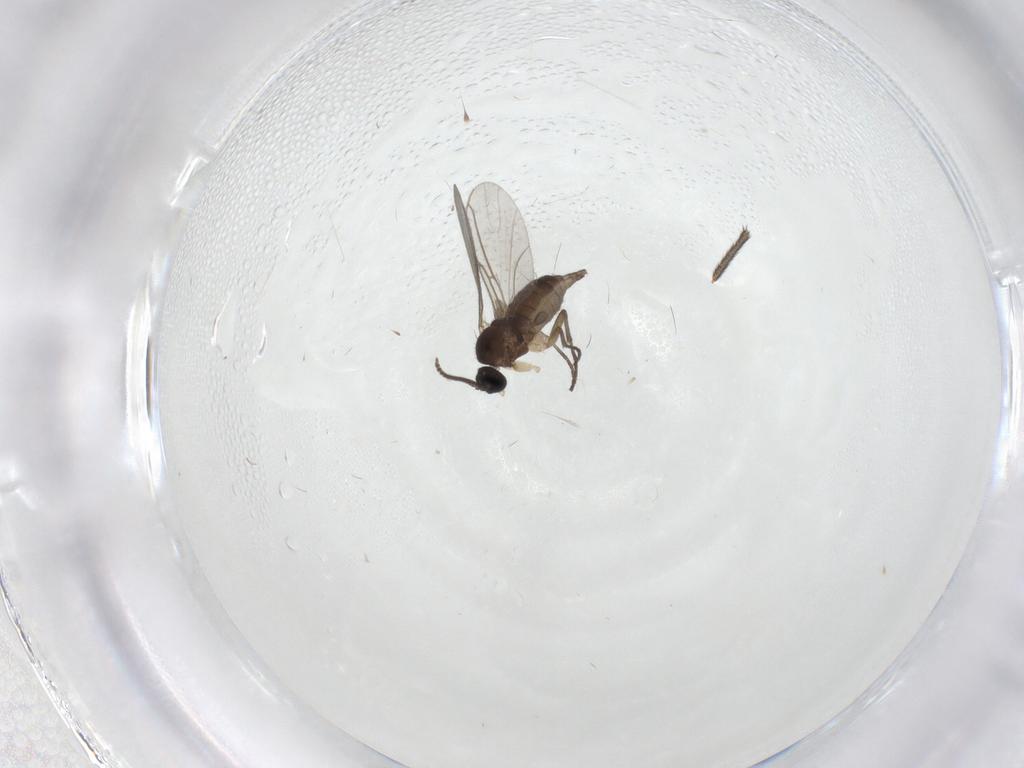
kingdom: Animalia
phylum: Arthropoda
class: Insecta
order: Diptera
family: Sciaridae
